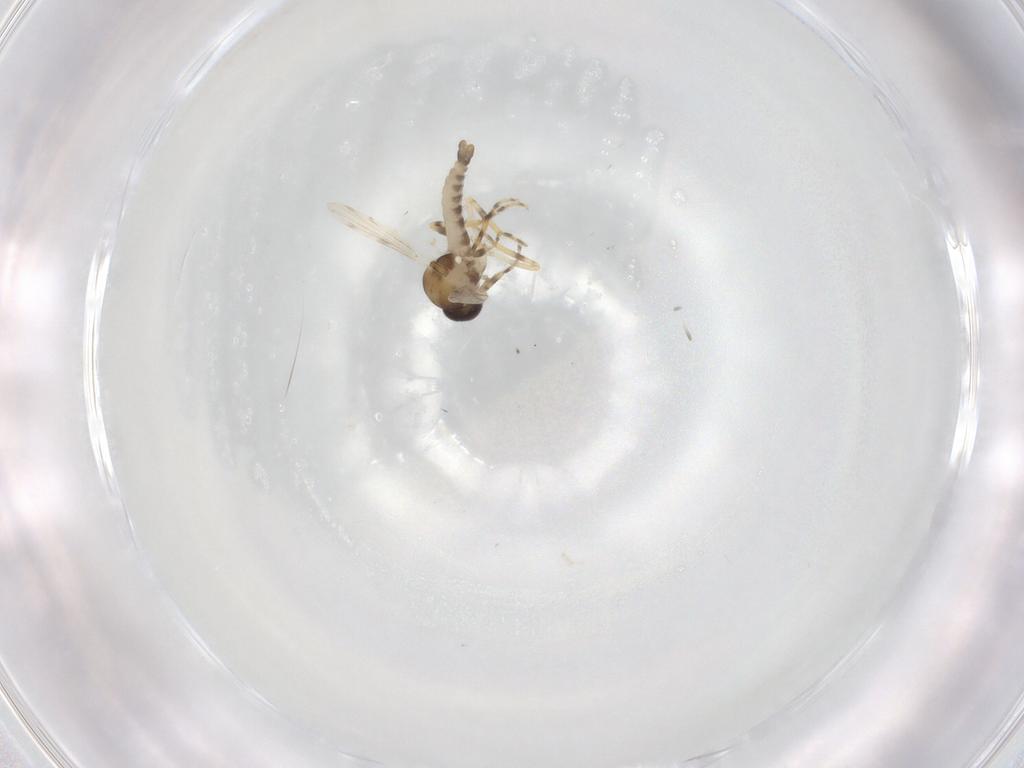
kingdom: Animalia
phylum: Arthropoda
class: Insecta
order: Diptera
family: Ceratopogonidae
